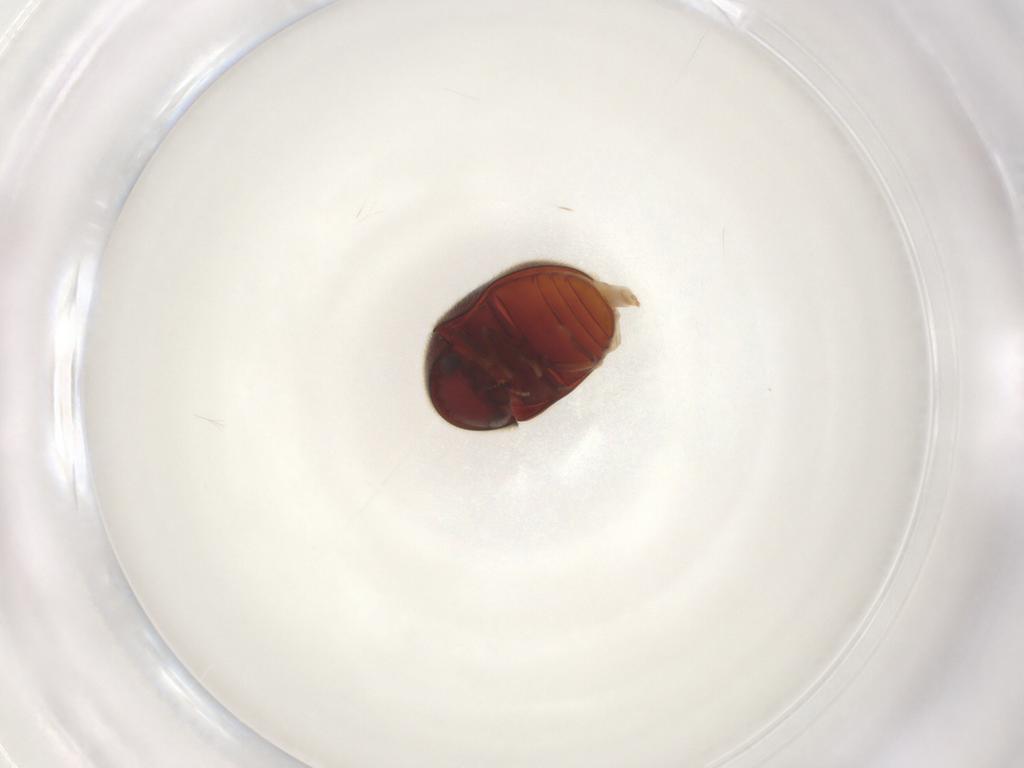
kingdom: Animalia
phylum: Arthropoda
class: Insecta
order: Coleoptera
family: Ptinidae
